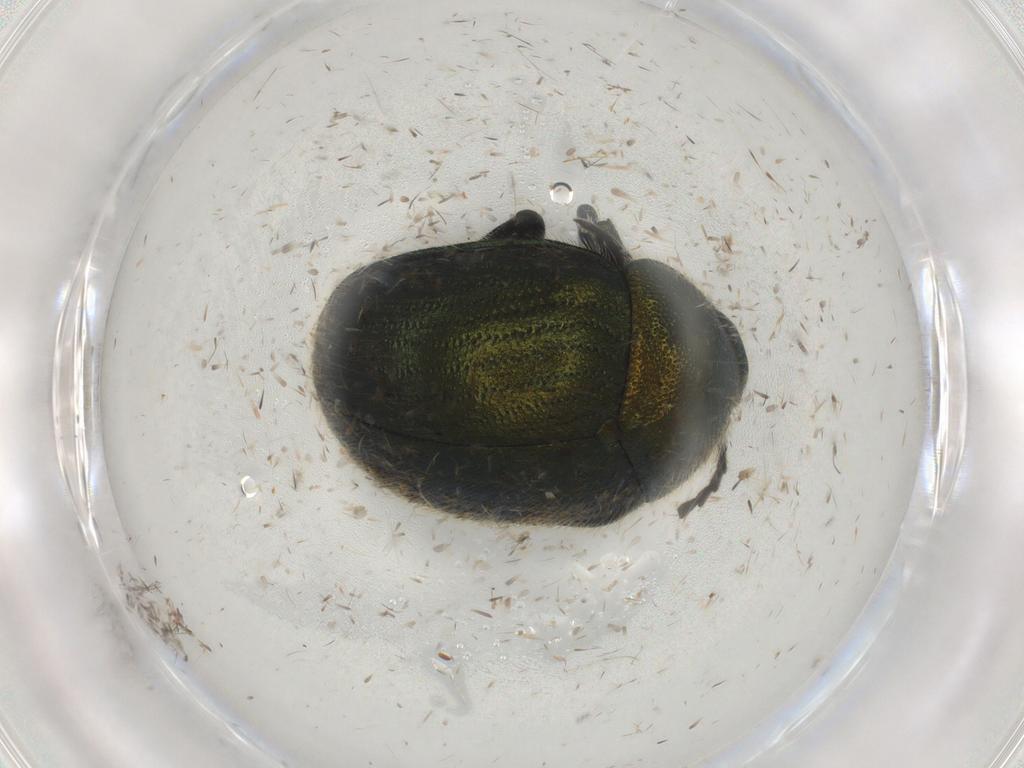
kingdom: Animalia
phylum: Arthropoda
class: Insecta
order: Coleoptera
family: Chrysomelidae
